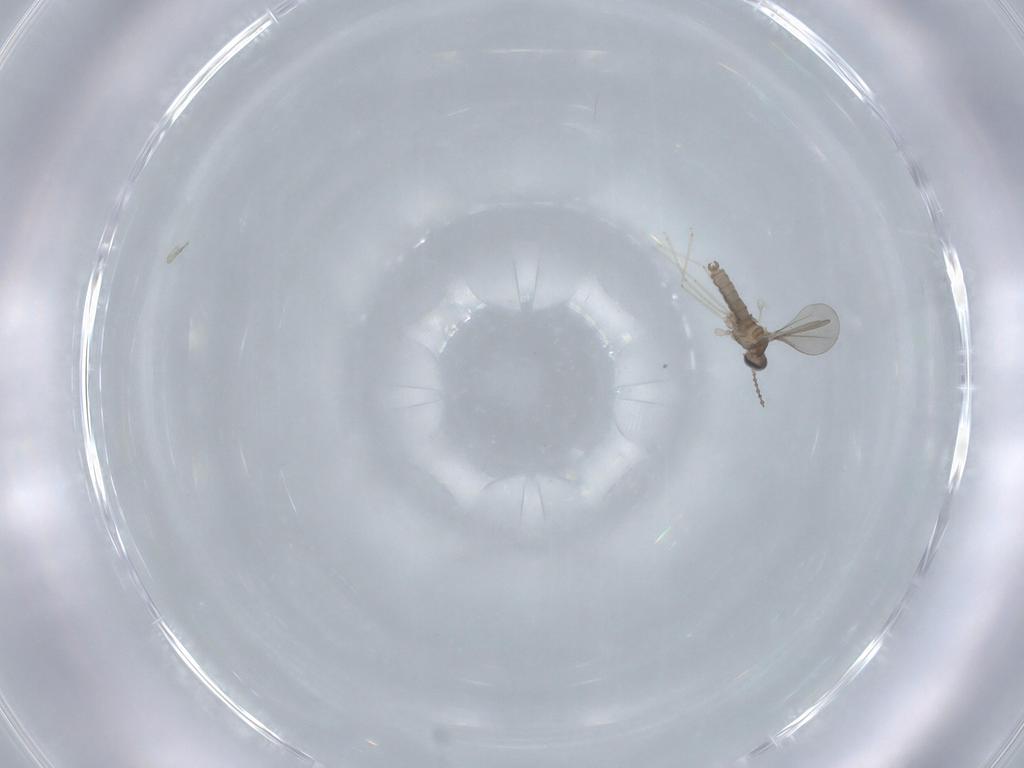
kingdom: Animalia
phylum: Arthropoda
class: Insecta
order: Diptera
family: Cecidomyiidae
